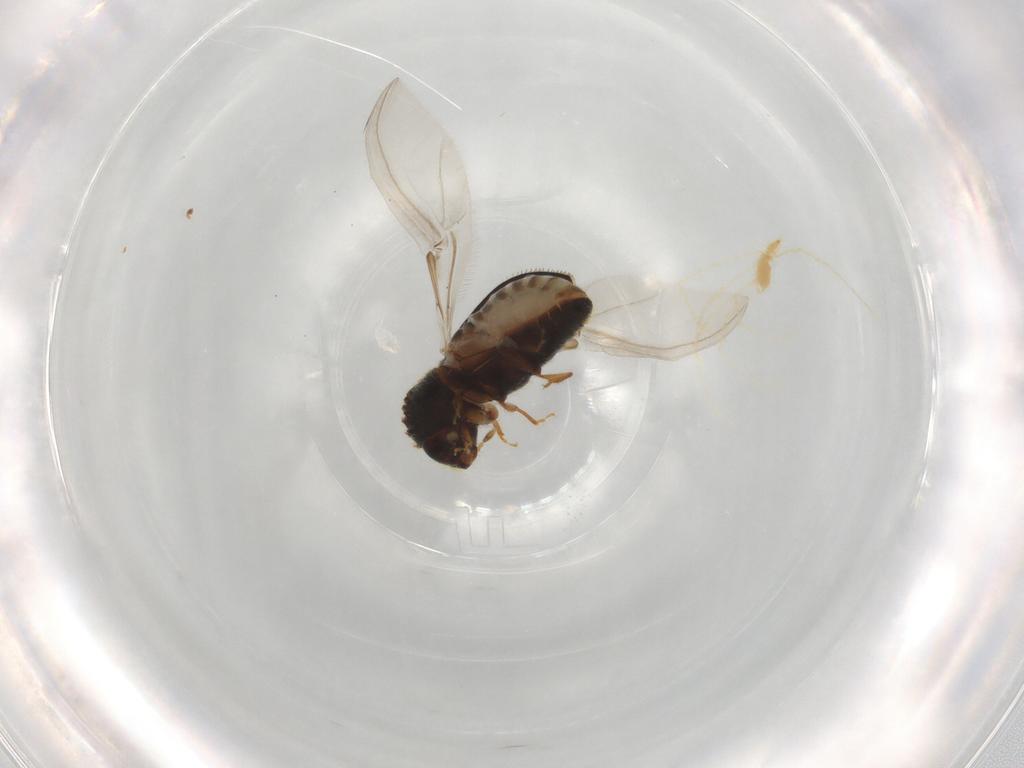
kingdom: Animalia
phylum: Arthropoda
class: Insecta
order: Coleoptera
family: Curculionidae
